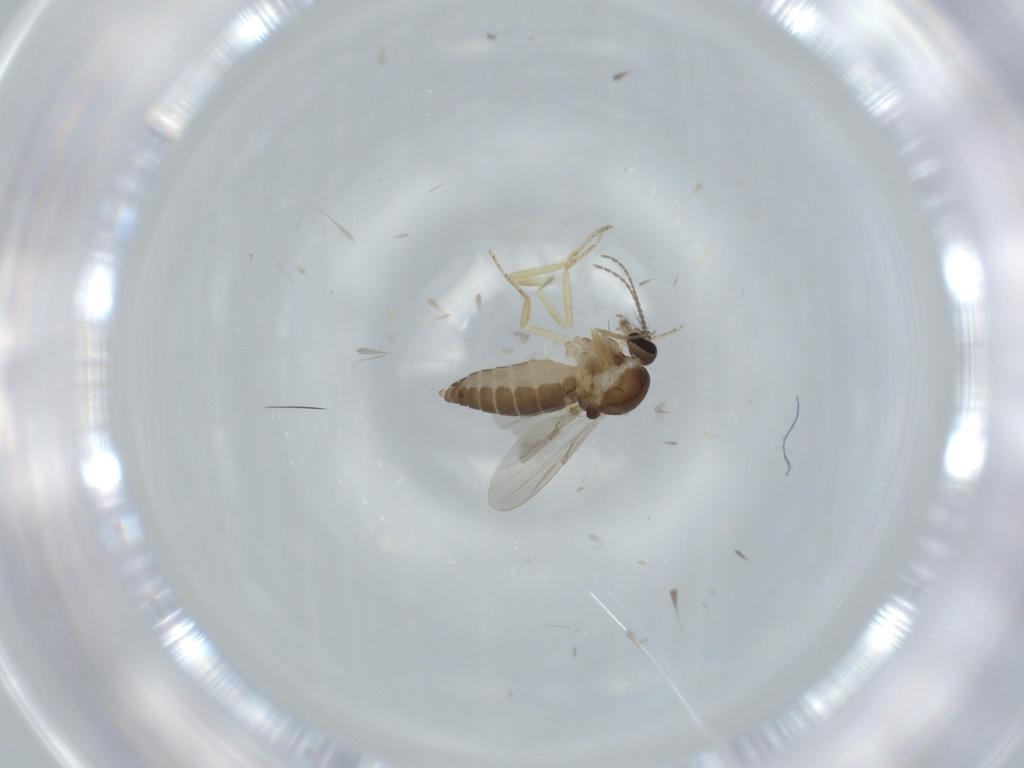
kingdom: Animalia
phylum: Arthropoda
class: Insecta
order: Diptera
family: Ceratopogonidae
